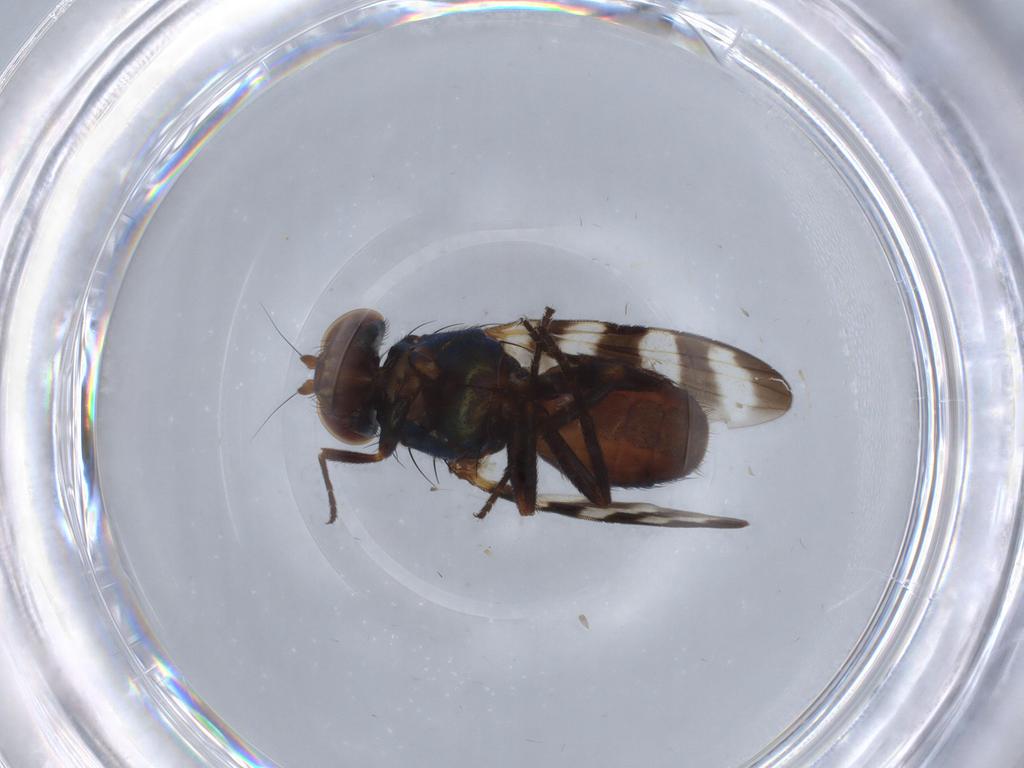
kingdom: Animalia
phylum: Arthropoda
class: Insecta
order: Diptera
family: Ulidiidae
